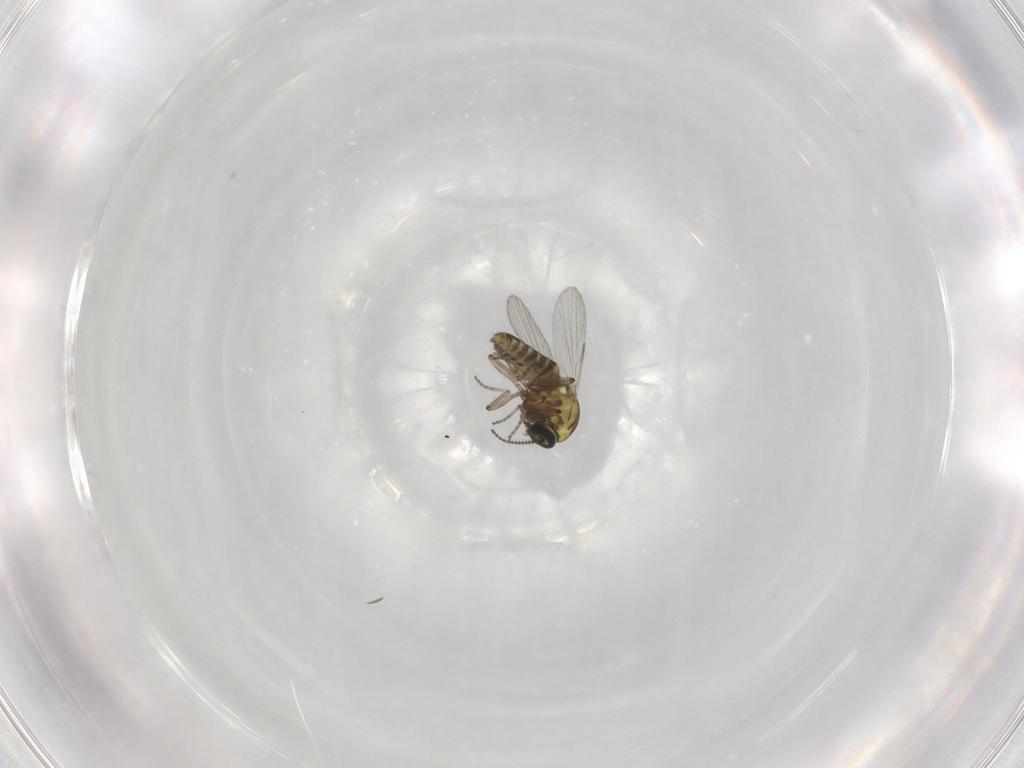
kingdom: Animalia
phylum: Arthropoda
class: Insecta
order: Diptera
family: Ceratopogonidae
